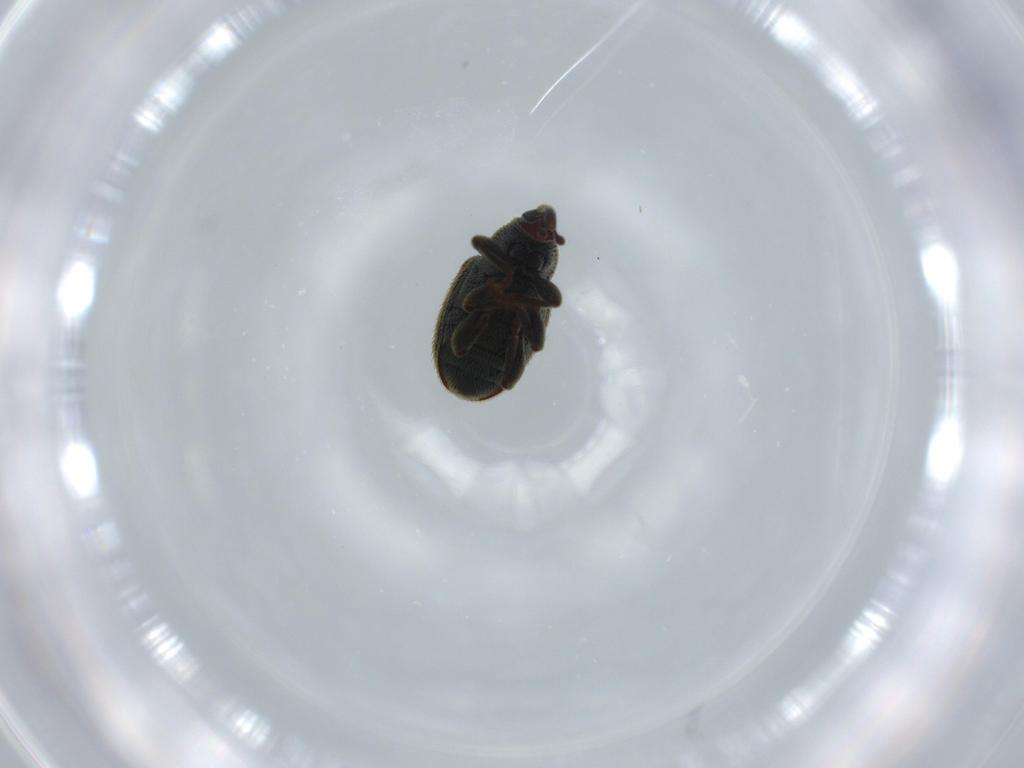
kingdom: Animalia
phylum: Arthropoda
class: Insecta
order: Coleoptera
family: Curculionidae
